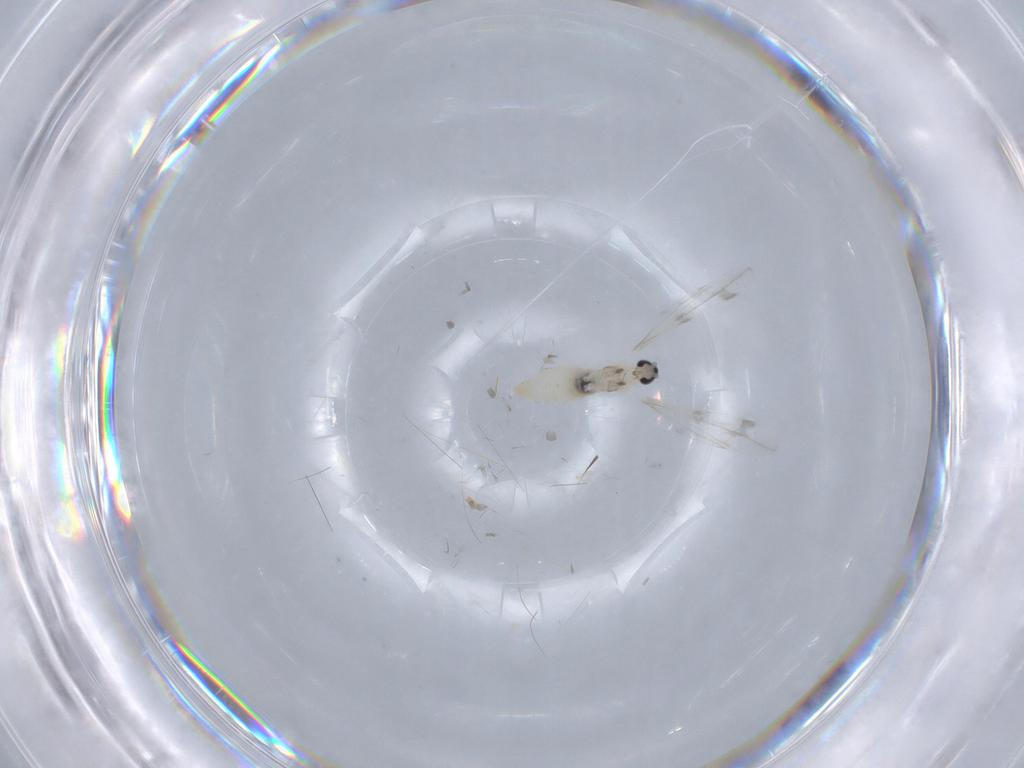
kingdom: Animalia
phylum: Arthropoda
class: Insecta
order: Diptera
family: Cecidomyiidae
